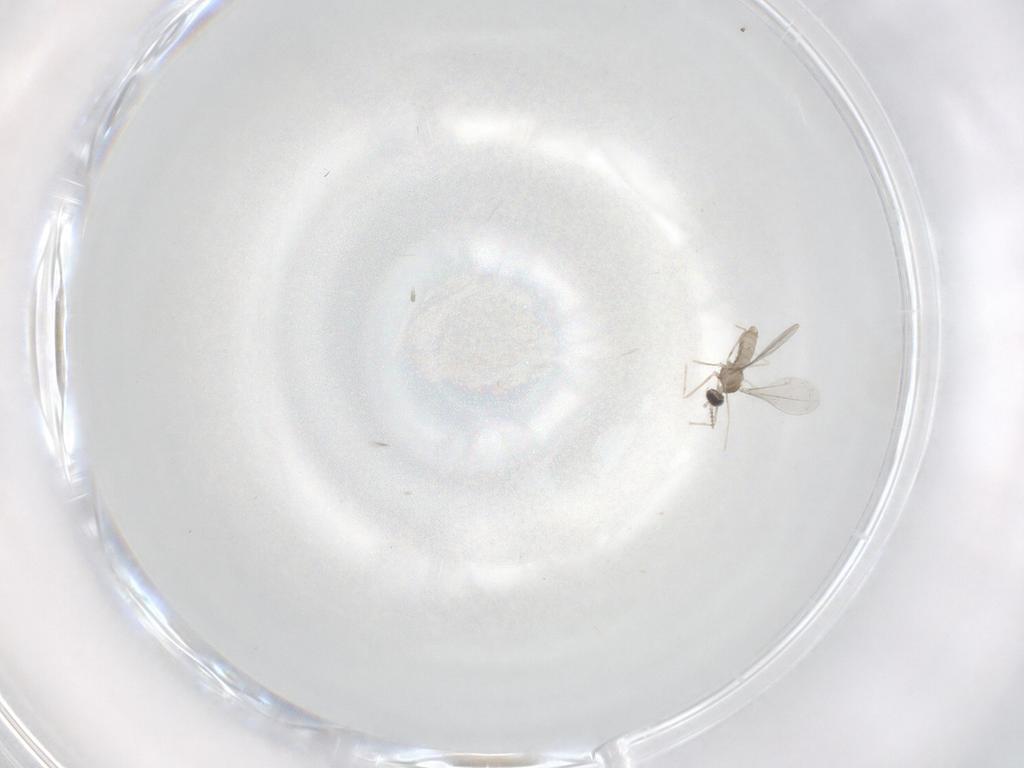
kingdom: Animalia
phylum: Arthropoda
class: Insecta
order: Diptera
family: Cecidomyiidae
